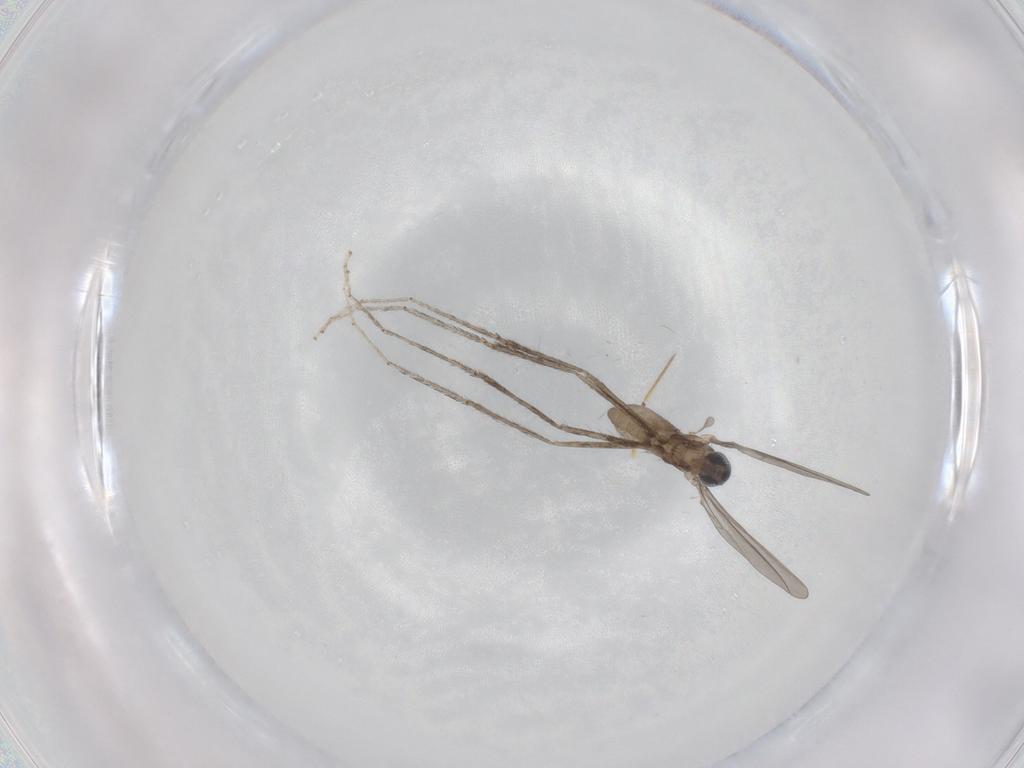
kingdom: Animalia
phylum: Arthropoda
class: Insecta
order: Diptera
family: Cecidomyiidae
